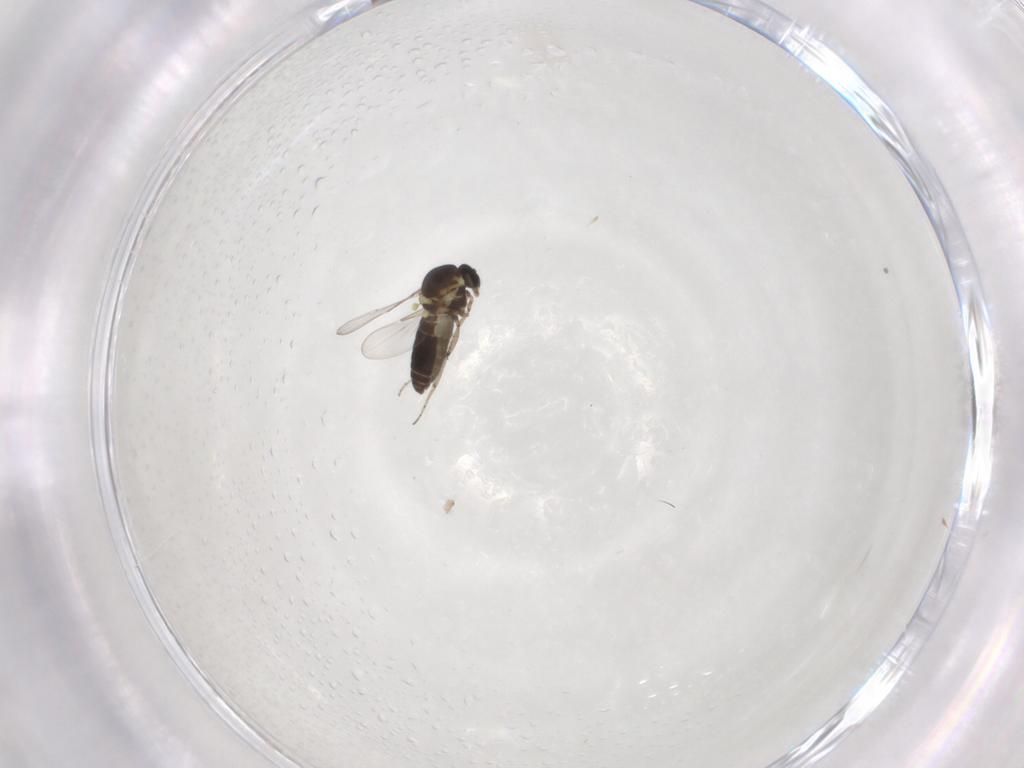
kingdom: Animalia
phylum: Arthropoda
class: Insecta
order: Diptera
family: Ceratopogonidae
